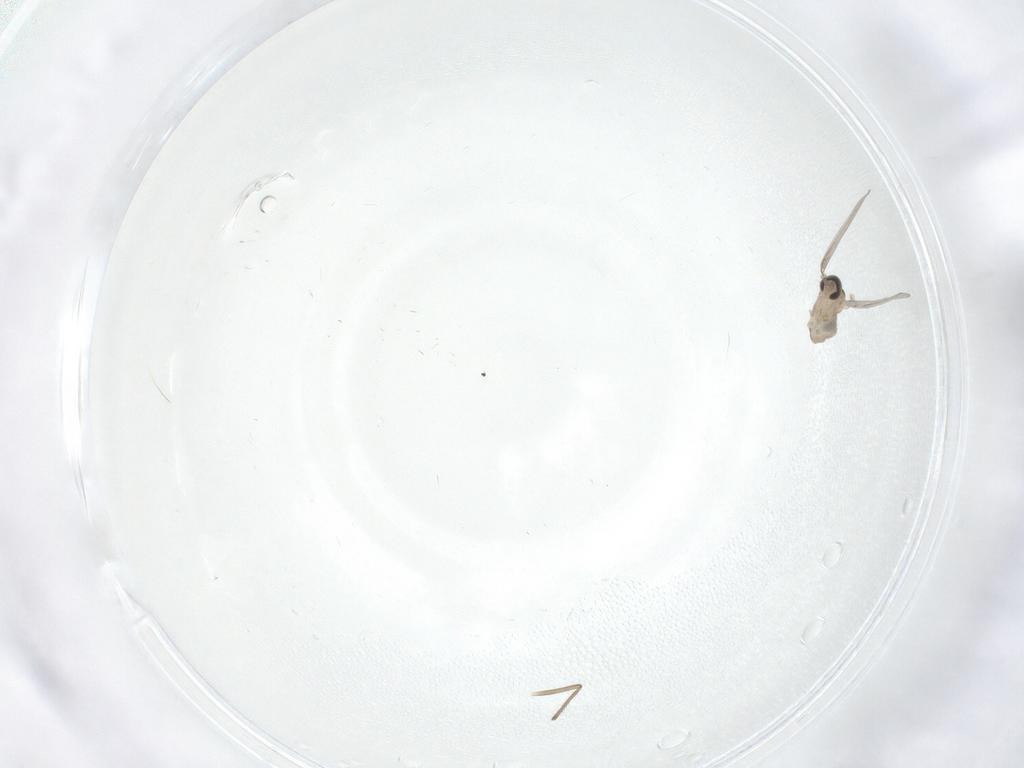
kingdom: Animalia
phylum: Arthropoda
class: Insecta
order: Diptera
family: Cecidomyiidae
